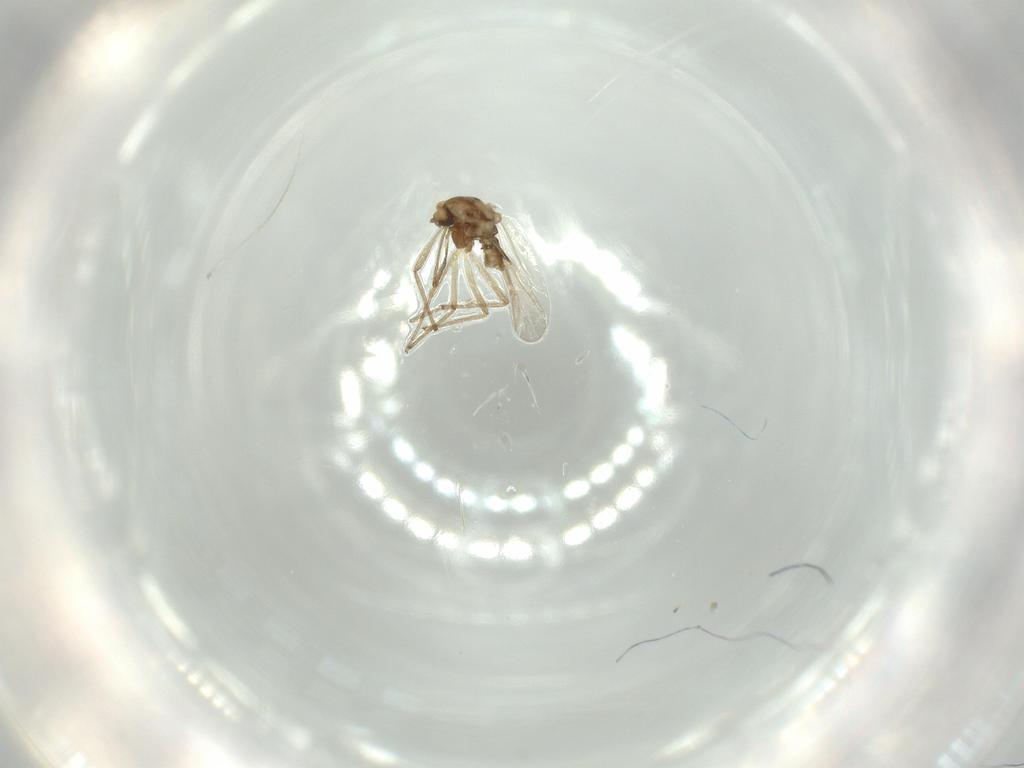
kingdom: Animalia
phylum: Arthropoda
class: Insecta
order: Diptera
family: Chironomidae
